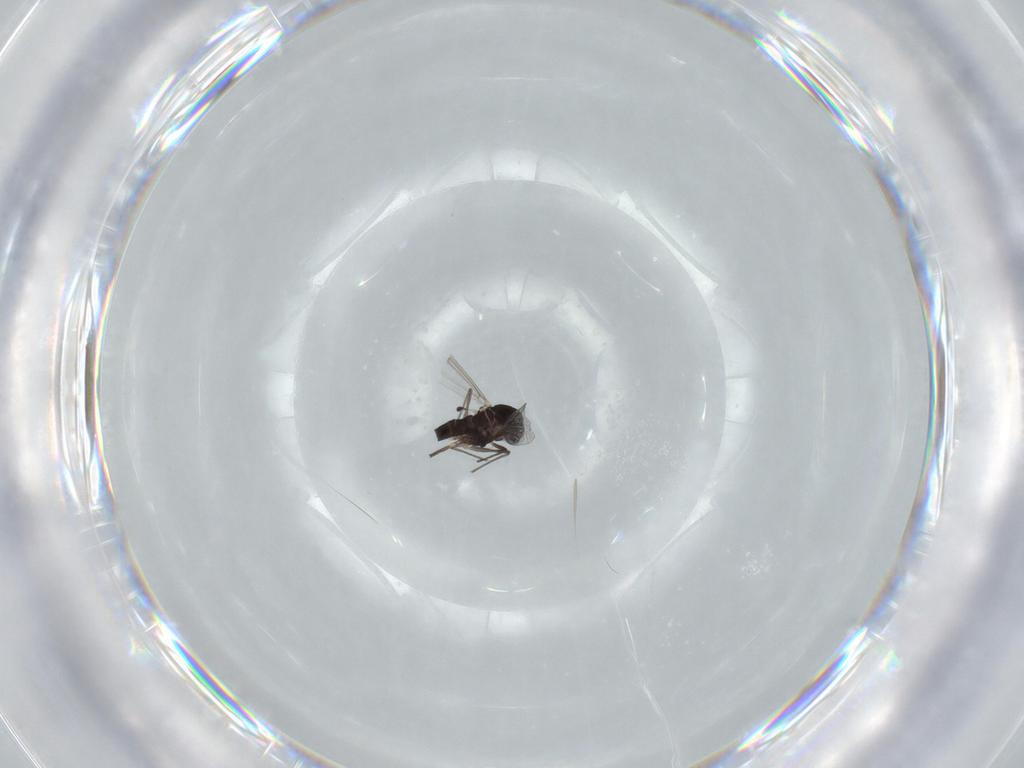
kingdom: Animalia
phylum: Arthropoda
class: Insecta
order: Diptera
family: Chironomidae
